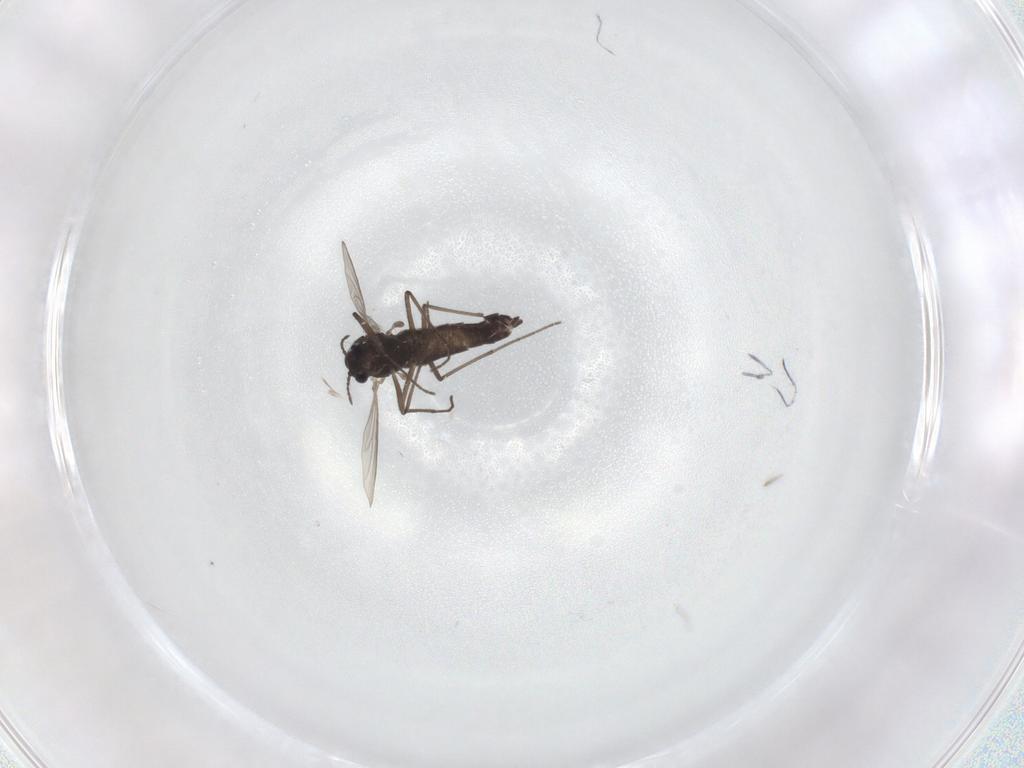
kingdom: Animalia
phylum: Arthropoda
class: Insecta
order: Diptera
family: Chironomidae
